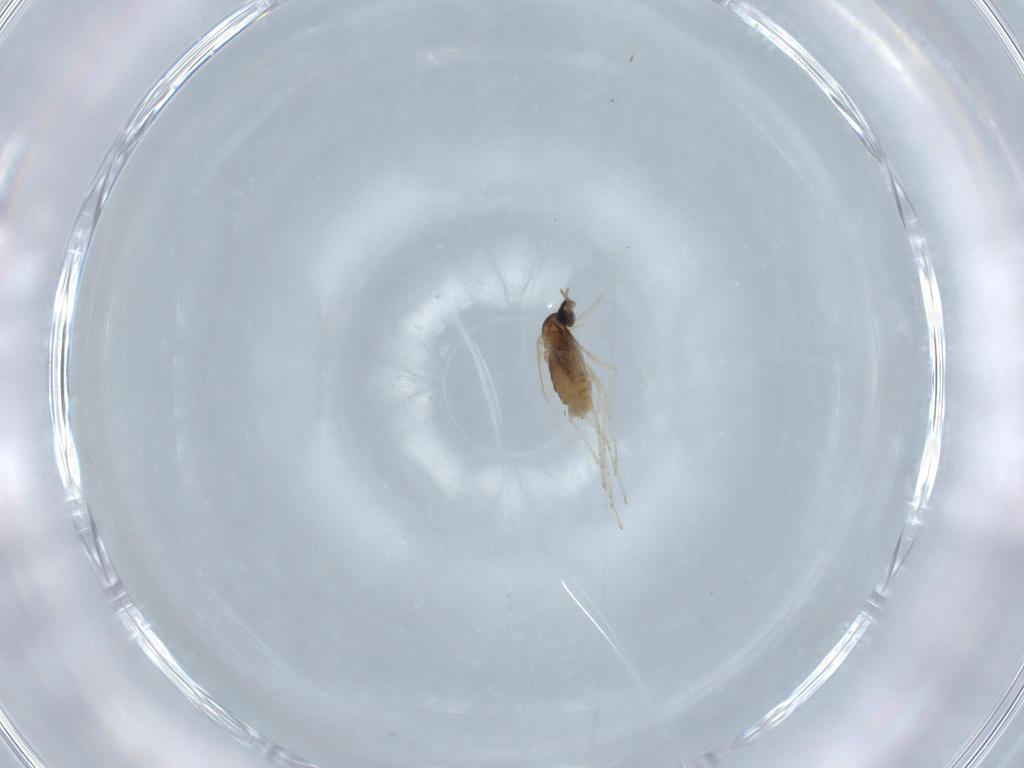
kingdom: Animalia
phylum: Arthropoda
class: Insecta
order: Diptera
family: Cecidomyiidae
